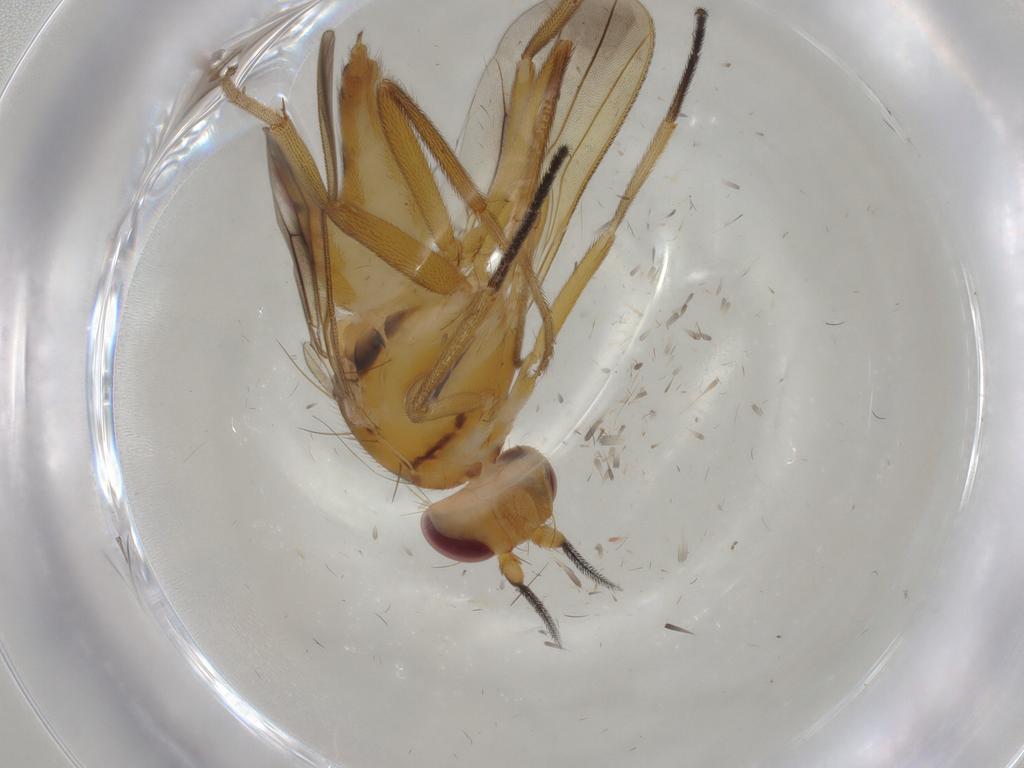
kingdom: Animalia
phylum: Arthropoda
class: Insecta
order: Diptera
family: Clusiidae
